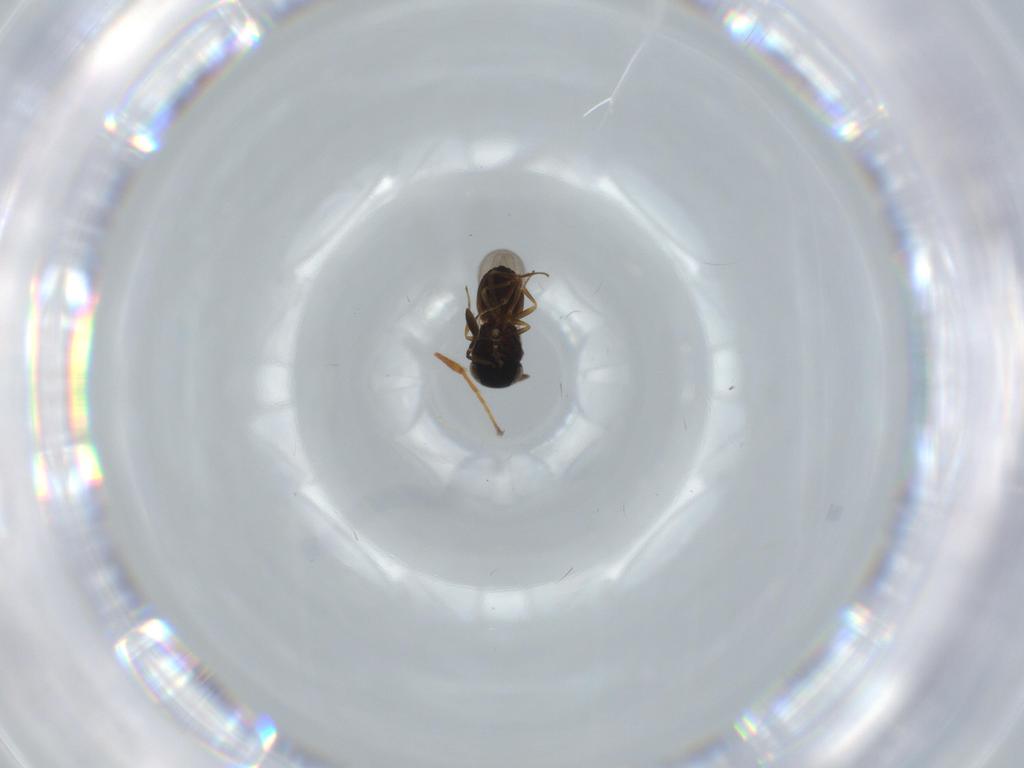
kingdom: Animalia
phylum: Arthropoda
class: Insecta
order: Hymenoptera
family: Scelionidae
